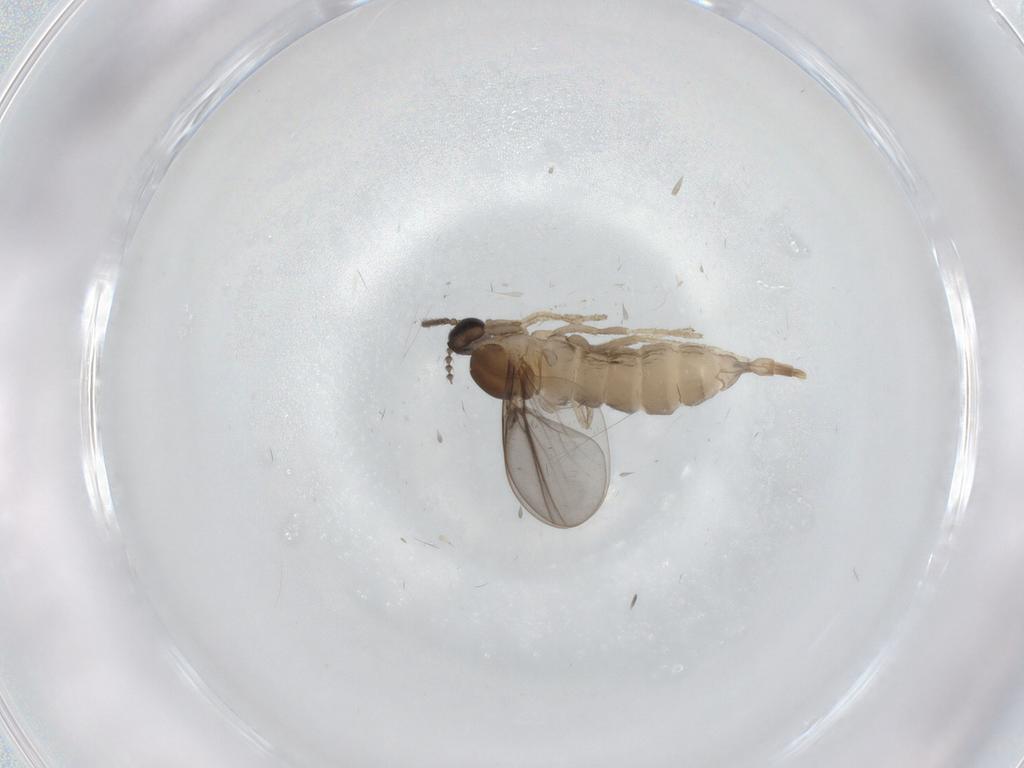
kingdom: Animalia
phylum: Arthropoda
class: Insecta
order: Diptera
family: Cecidomyiidae
